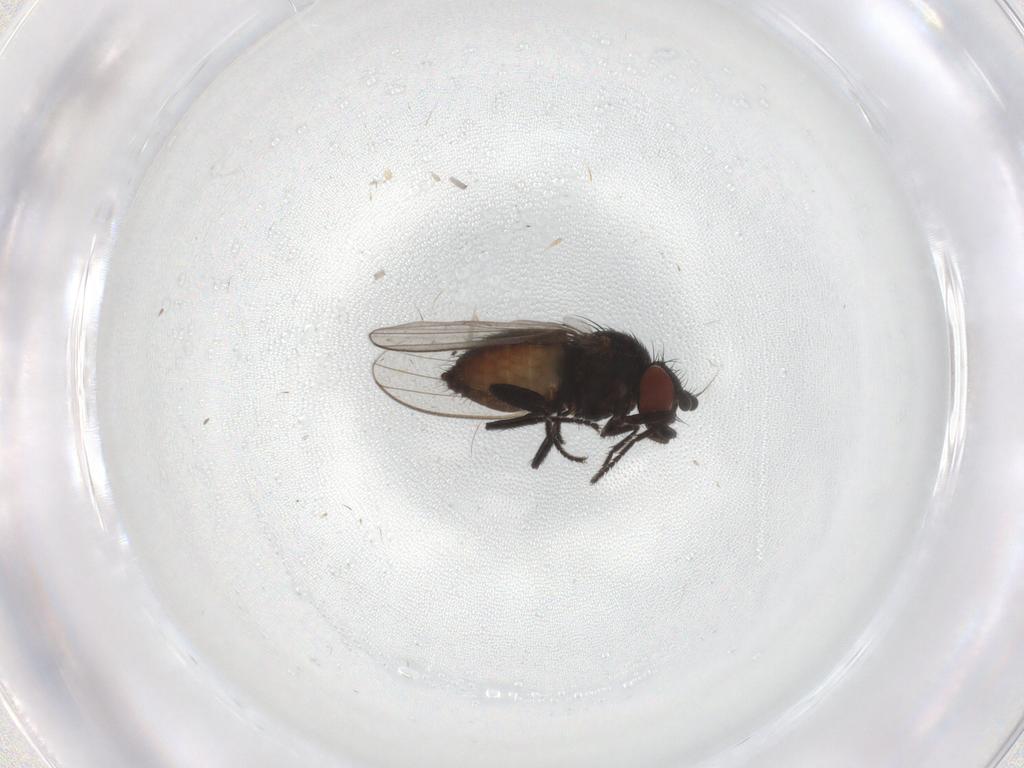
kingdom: Animalia
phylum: Arthropoda
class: Insecta
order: Diptera
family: Milichiidae
